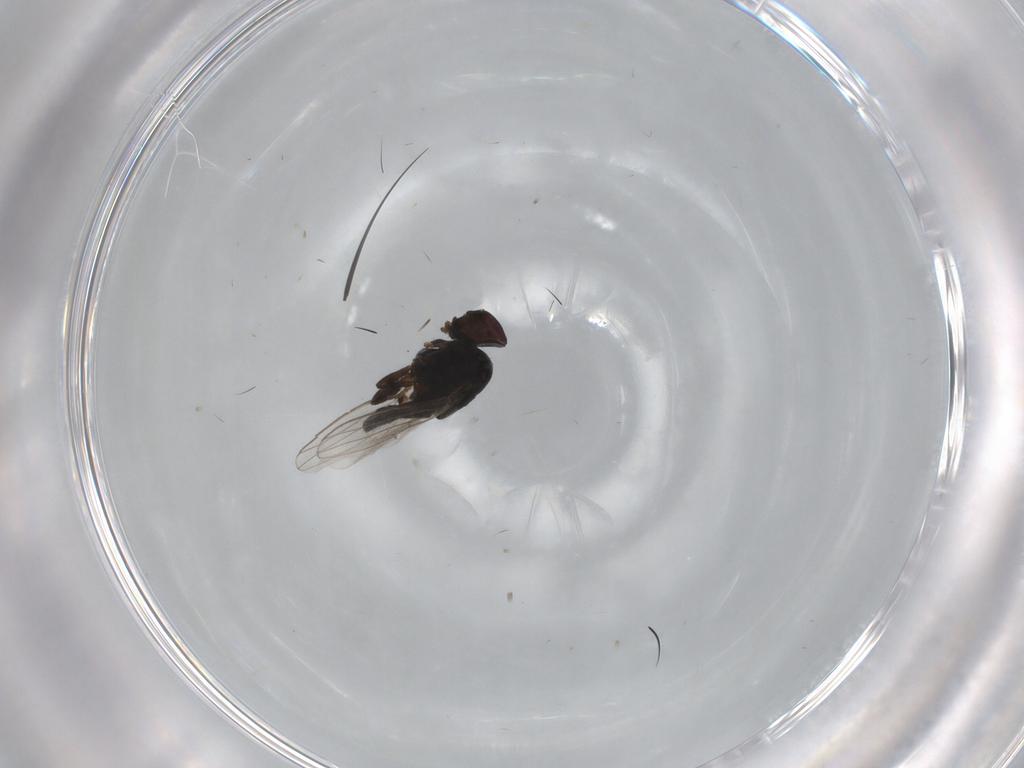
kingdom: Animalia
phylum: Arthropoda
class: Insecta
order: Diptera
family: Milichiidae
